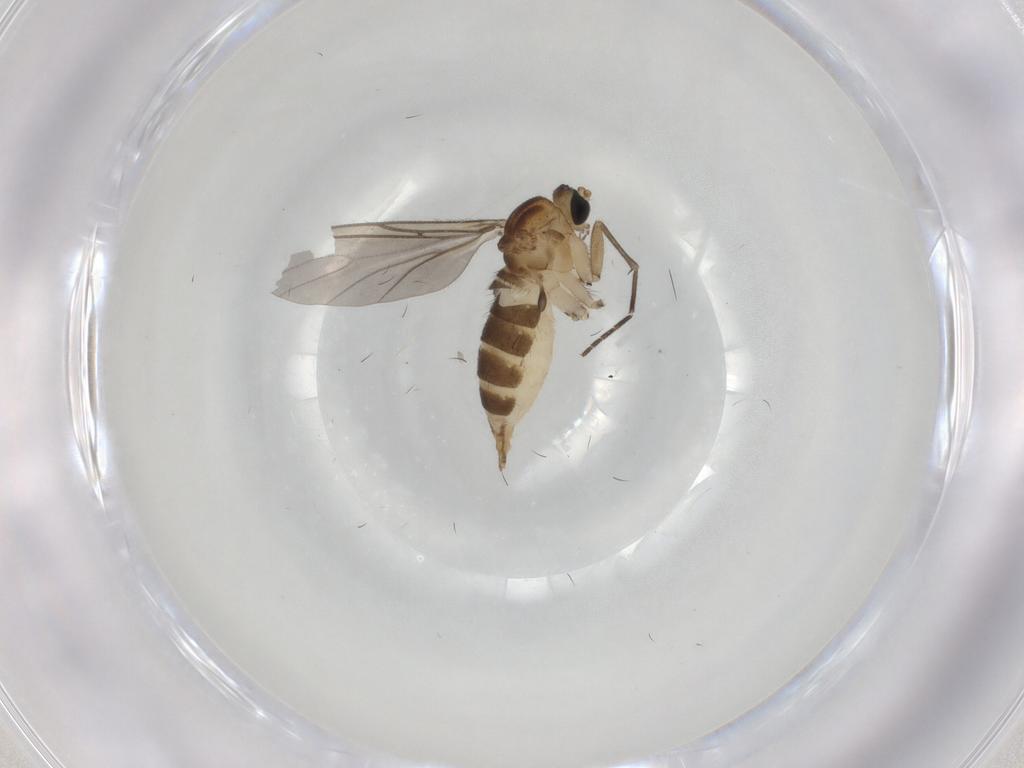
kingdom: Animalia
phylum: Arthropoda
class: Insecta
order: Diptera
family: Sciaridae
